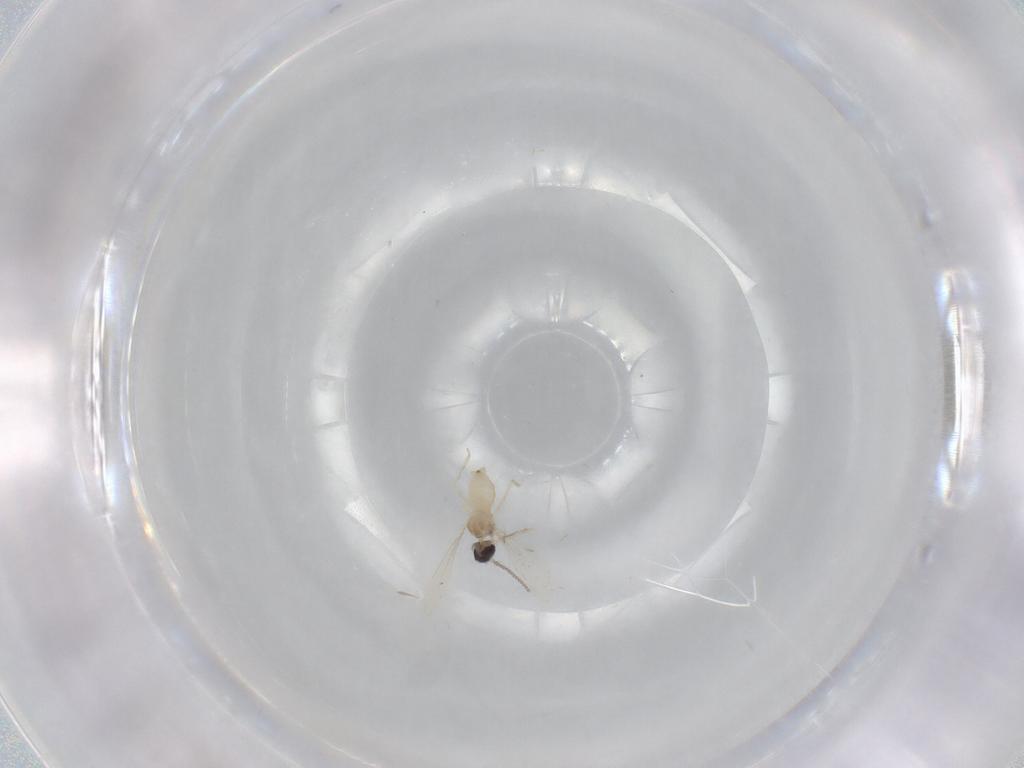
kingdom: Animalia
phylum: Arthropoda
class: Insecta
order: Diptera
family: Cecidomyiidae
